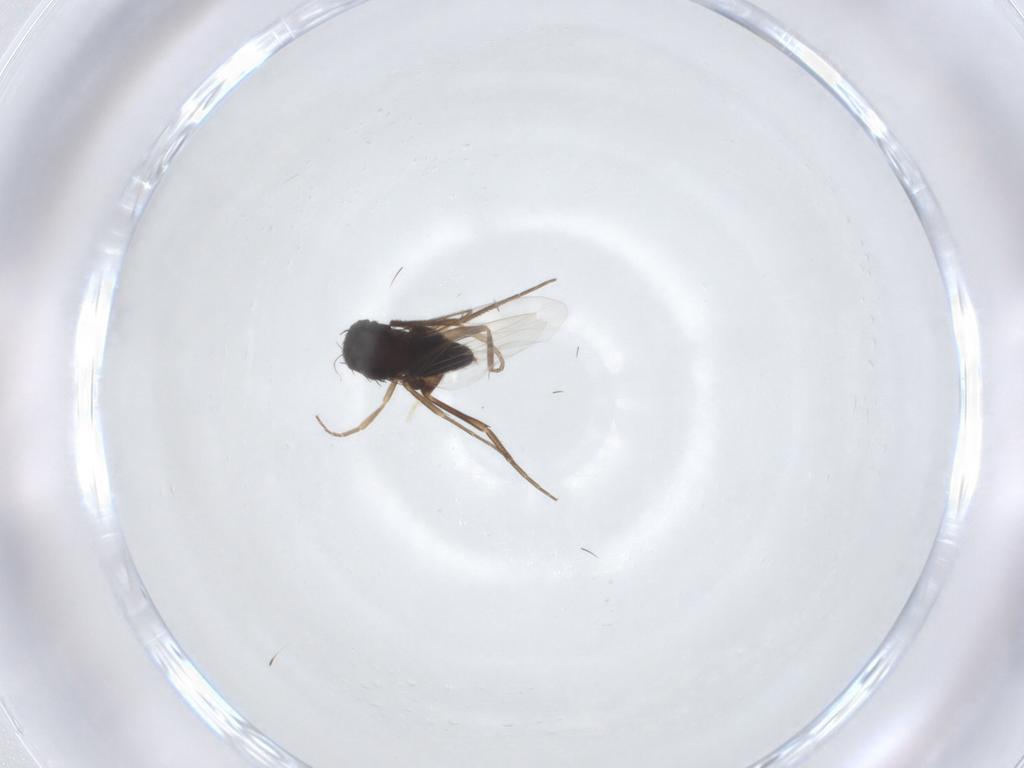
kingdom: Animalia
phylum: Arthropoda
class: Insecta
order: Diptera
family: Phoridae
